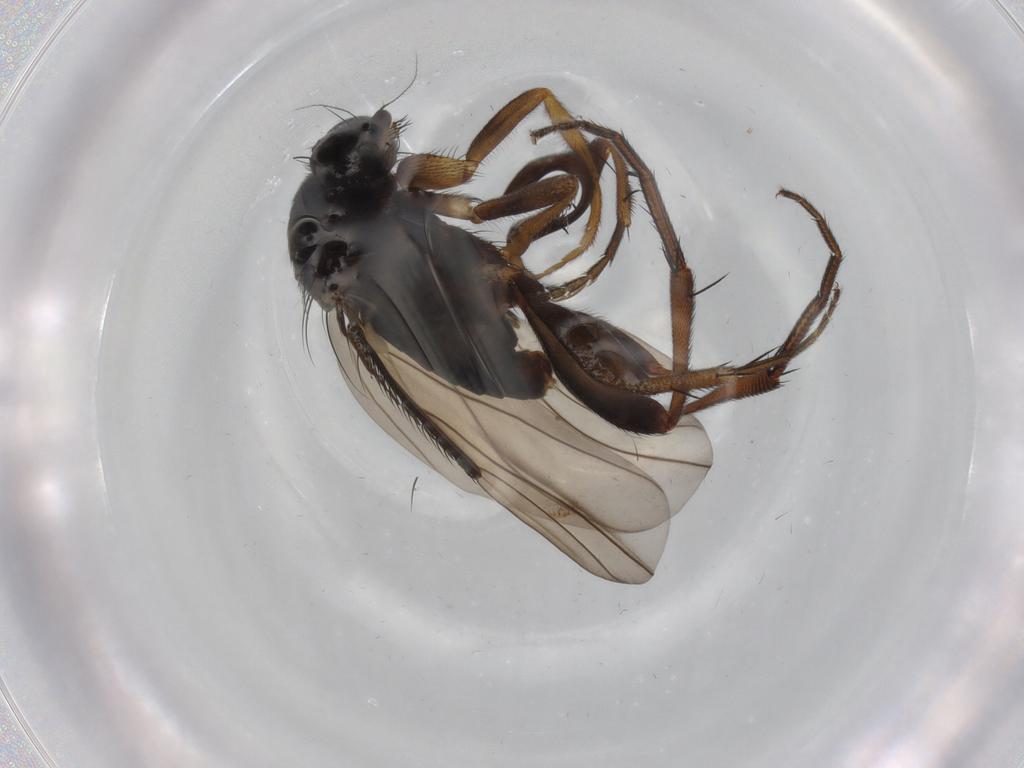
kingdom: Animalia
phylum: Arthropoda
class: Insecta
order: Diptera
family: Phoridae
